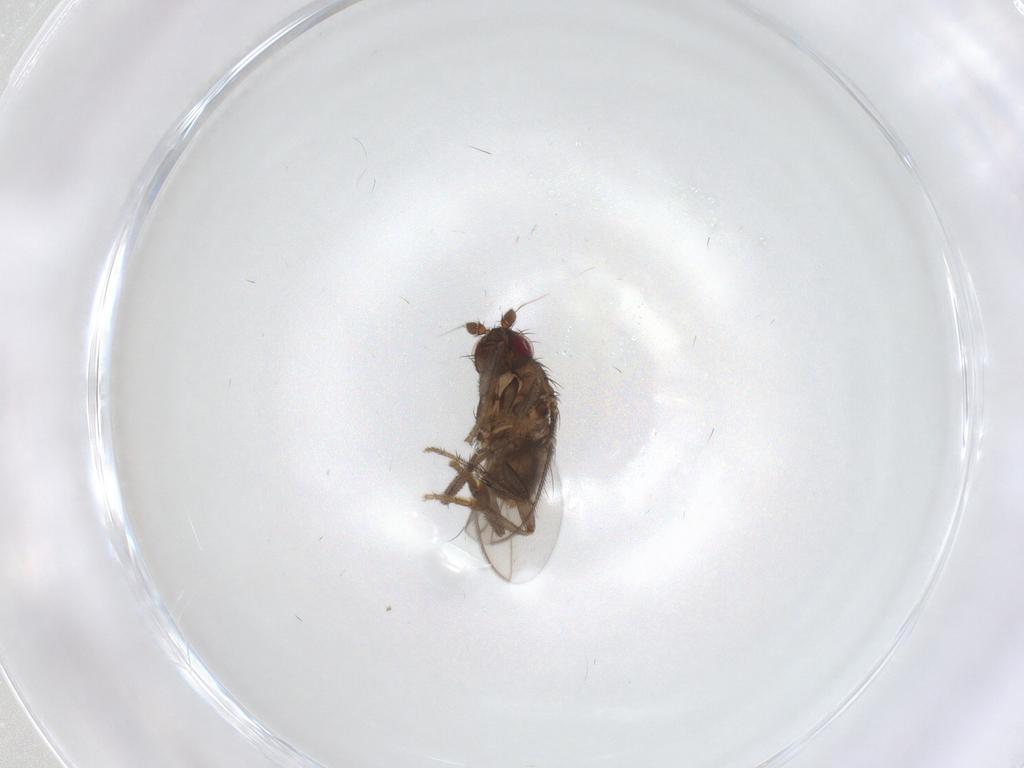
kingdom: Animalia
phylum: Arthropoda
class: Insecta
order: Diptera
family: Sphaeroceridae
